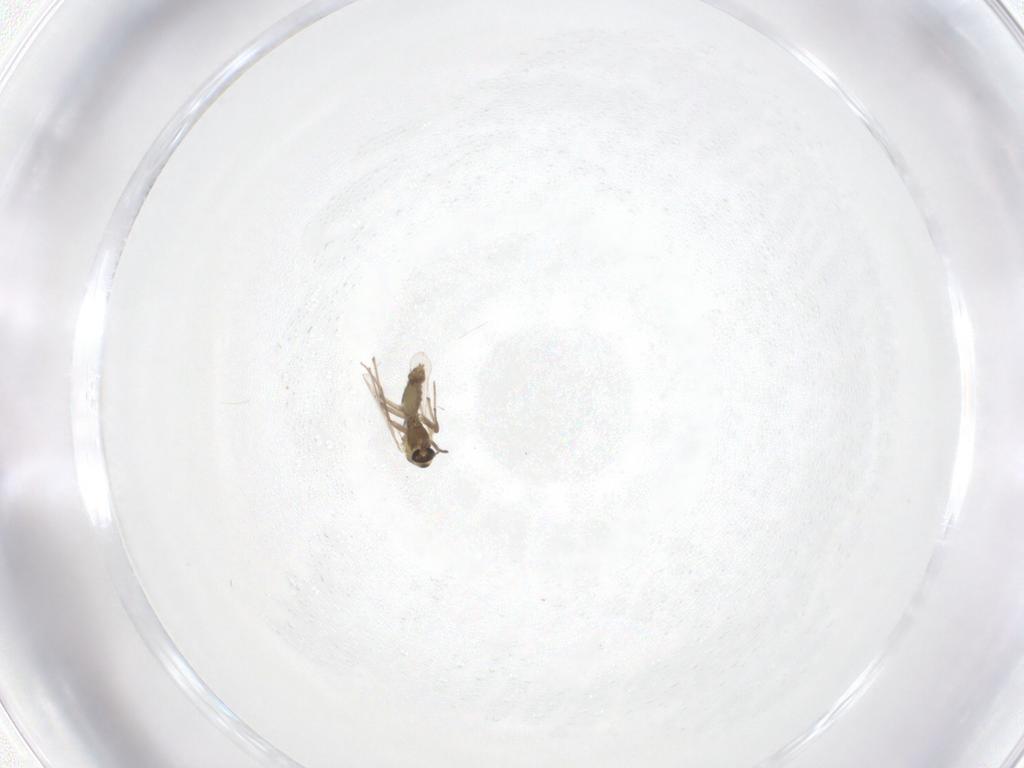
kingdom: Animalia
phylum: Arthropoda
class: Insecta
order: Diptera
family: Chironomidae
